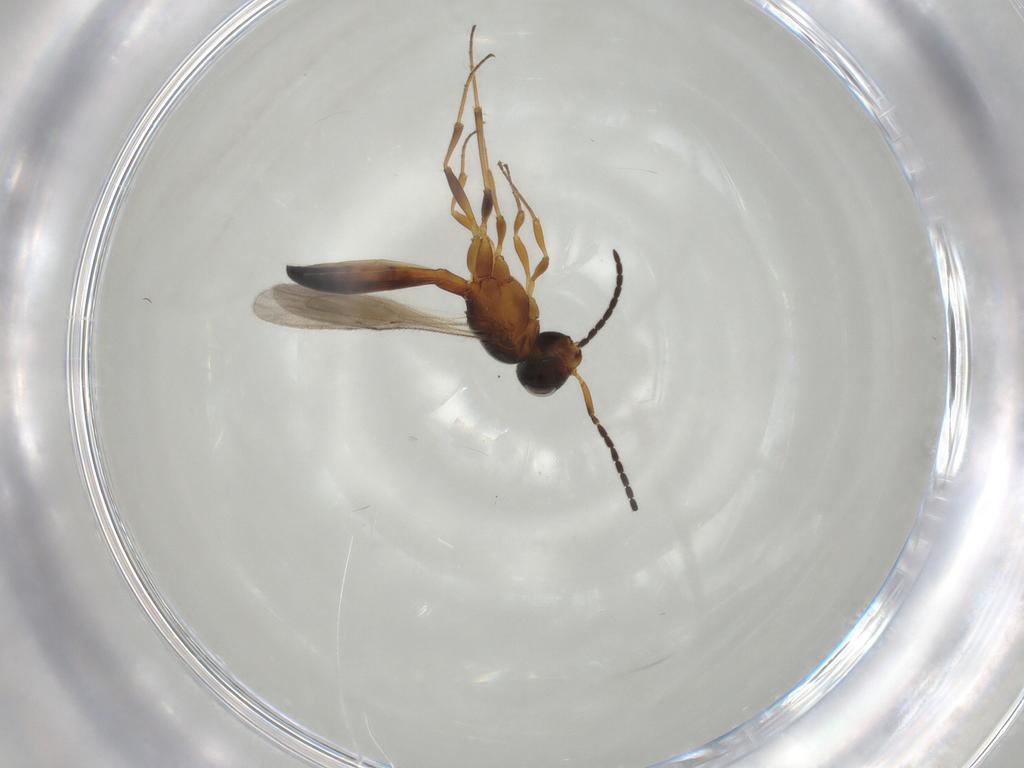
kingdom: Animalia
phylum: Arthropoda
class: Insecta
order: Hymenoptera
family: Scelionidae
